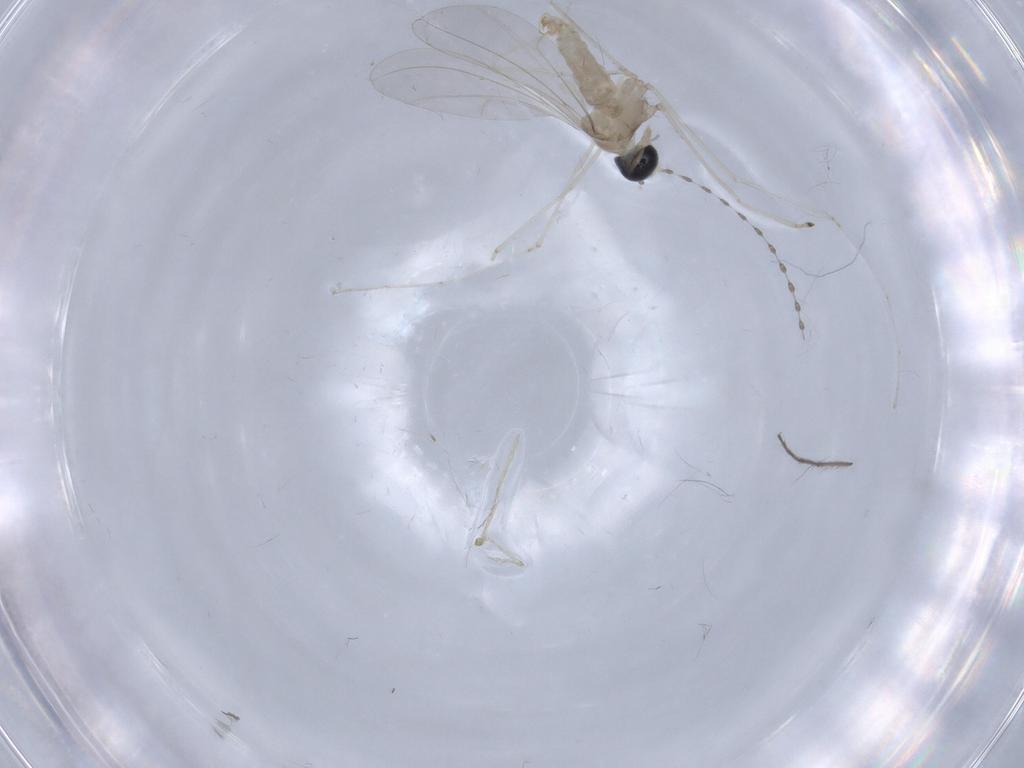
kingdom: Animalia
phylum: Arthropoda
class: Insecta
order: Diptera
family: Cecidomyiidae
